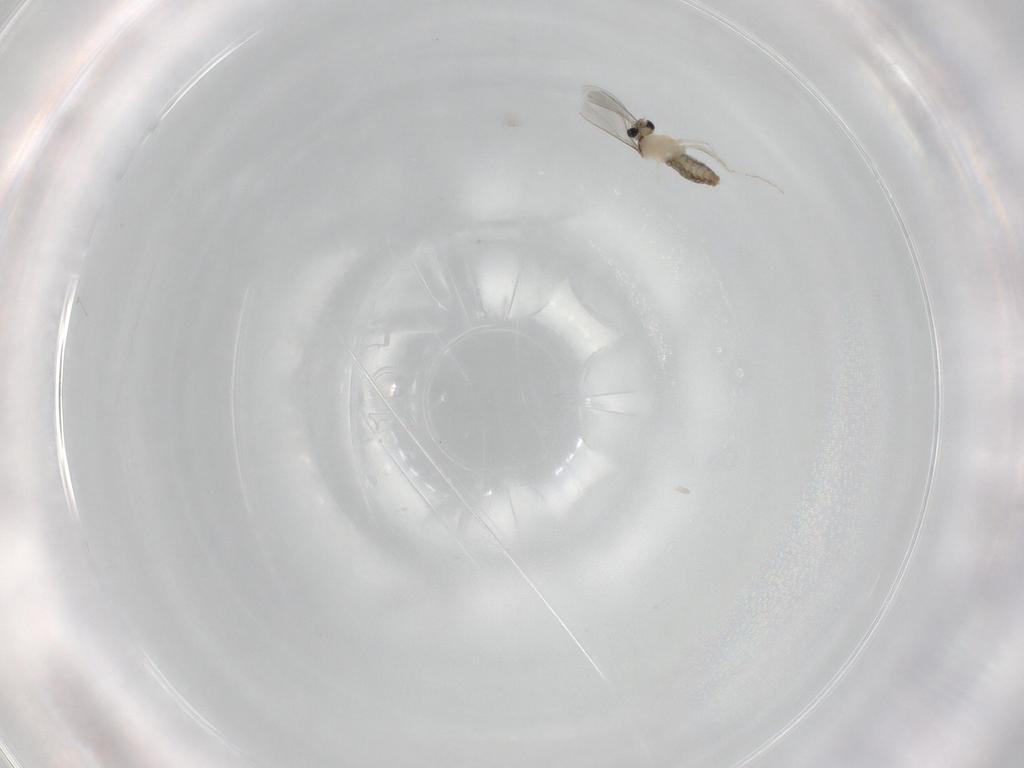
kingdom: Animalia
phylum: Arthropoda
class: Insecta
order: Diptera
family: Cecidomyiidae
